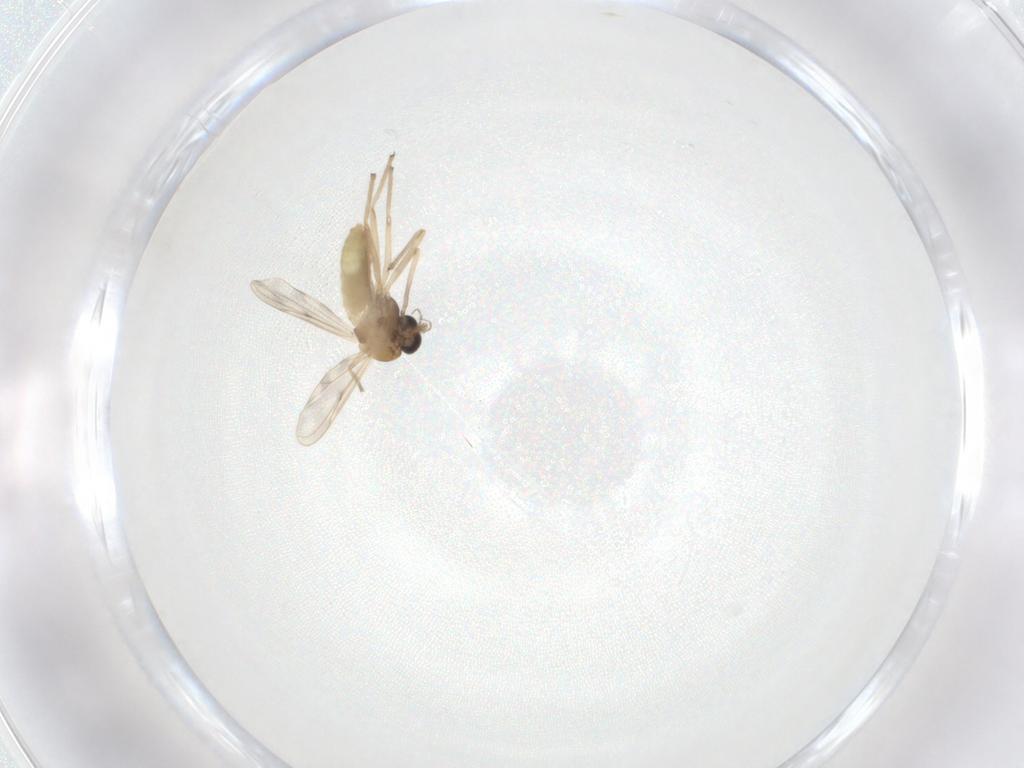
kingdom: Animalia
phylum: Arthropoda
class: Insecta
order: Diptera
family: Chironomidae
